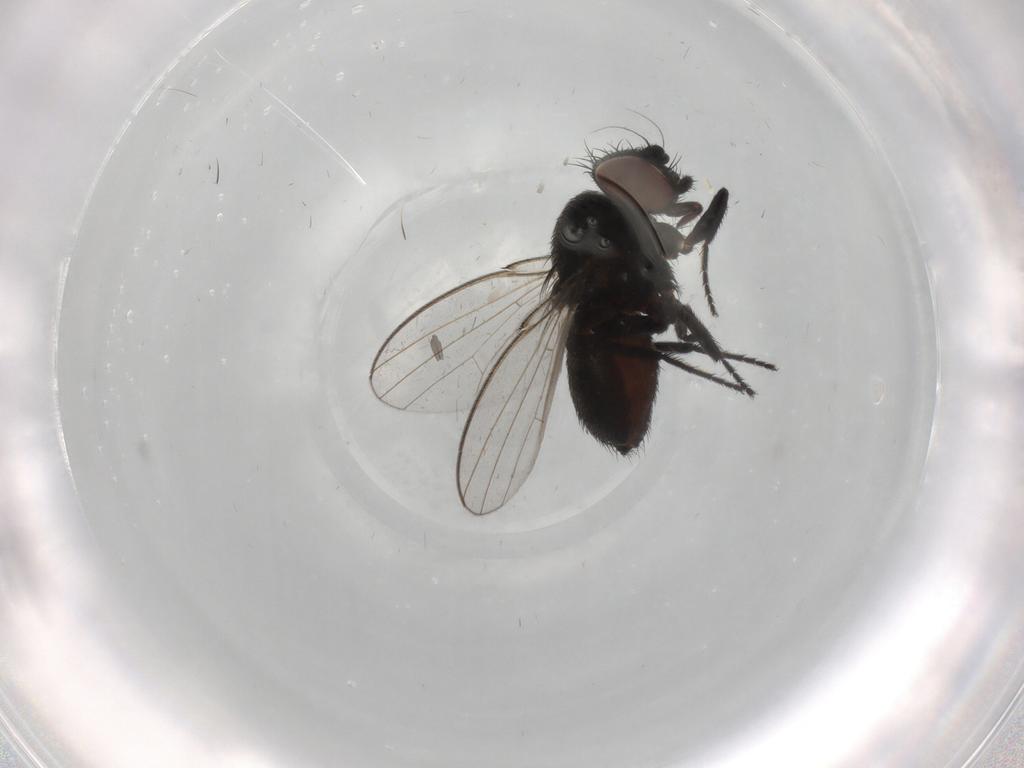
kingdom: Animalia
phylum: Arthropoda
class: Insecta
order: Diptera
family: Milichiidae
